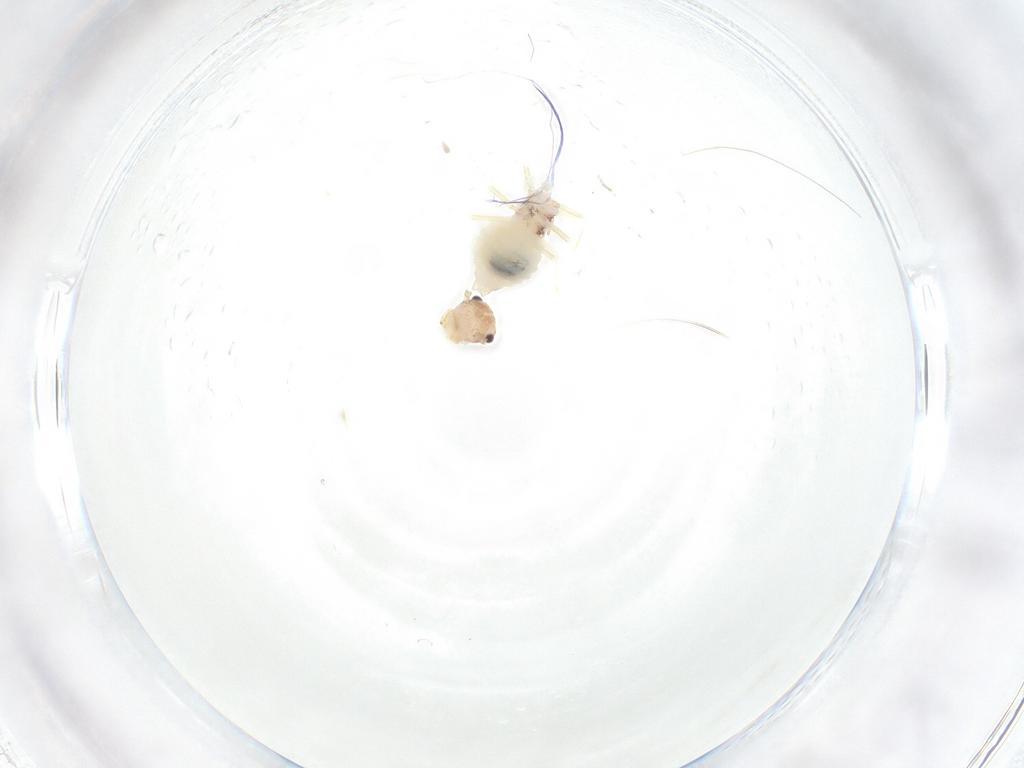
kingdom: Animalia
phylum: Arthropoda
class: Insecta
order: Psocodea
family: Amphipsocidae
